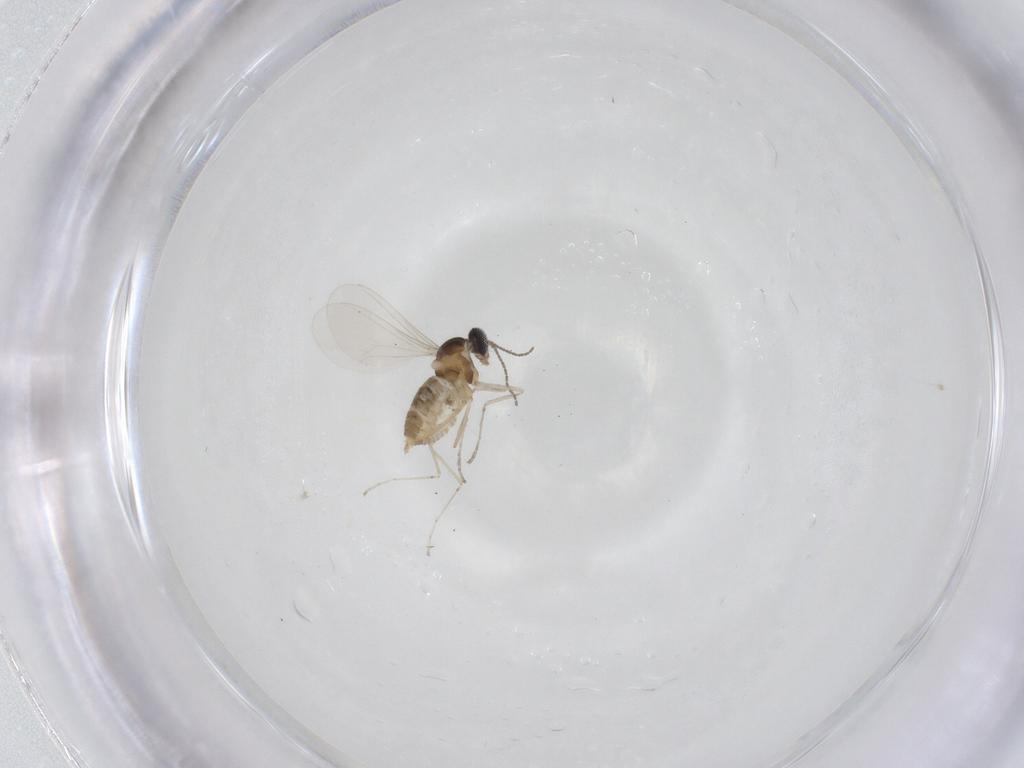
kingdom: Animalia
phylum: Arthropoda
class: Insecta
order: Diptera
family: Cecidomyiidae
